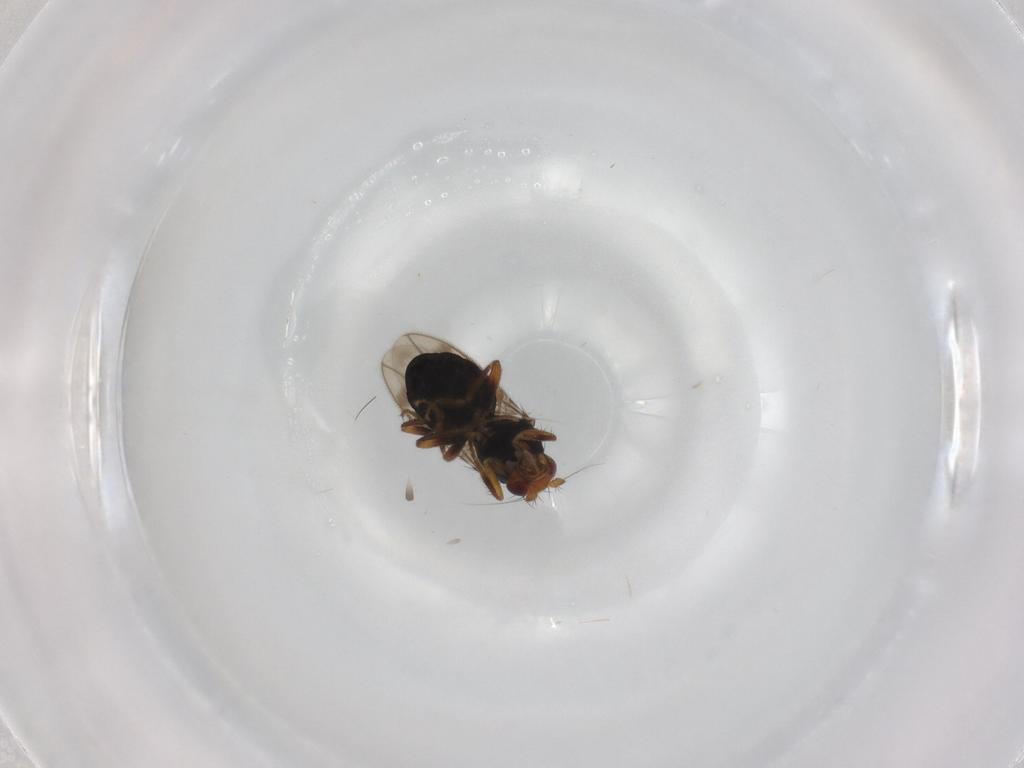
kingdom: Animalia
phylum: Arthropoda
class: Insecta
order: Diptera
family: Sphaeroceridae
